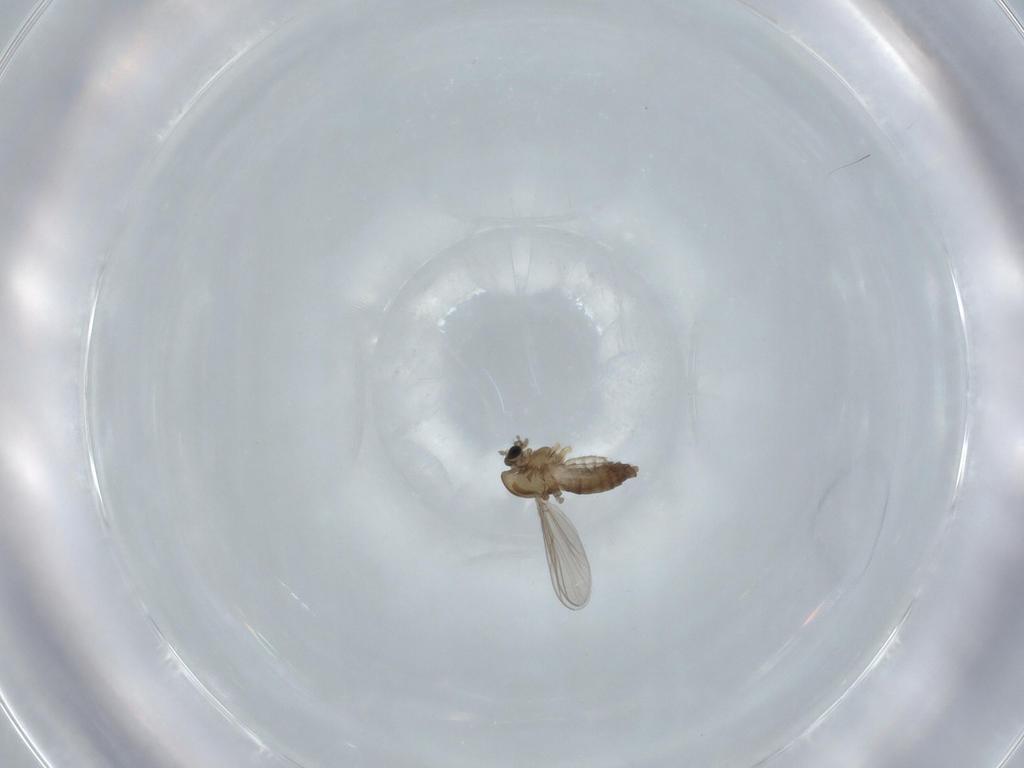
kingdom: Animalia
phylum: Arthropoda
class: Insecta
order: Diptera
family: Chironomidae
